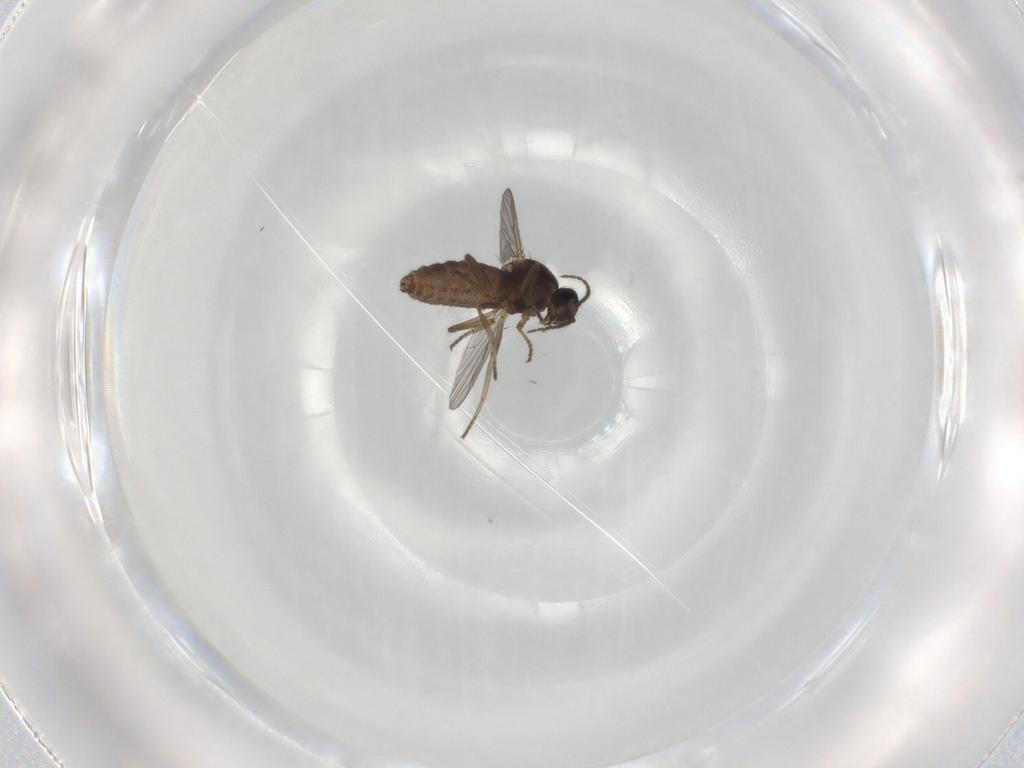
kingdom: Animalia
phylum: Arthropoda
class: Insecta
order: Diptera
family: Ceratopogonidae
